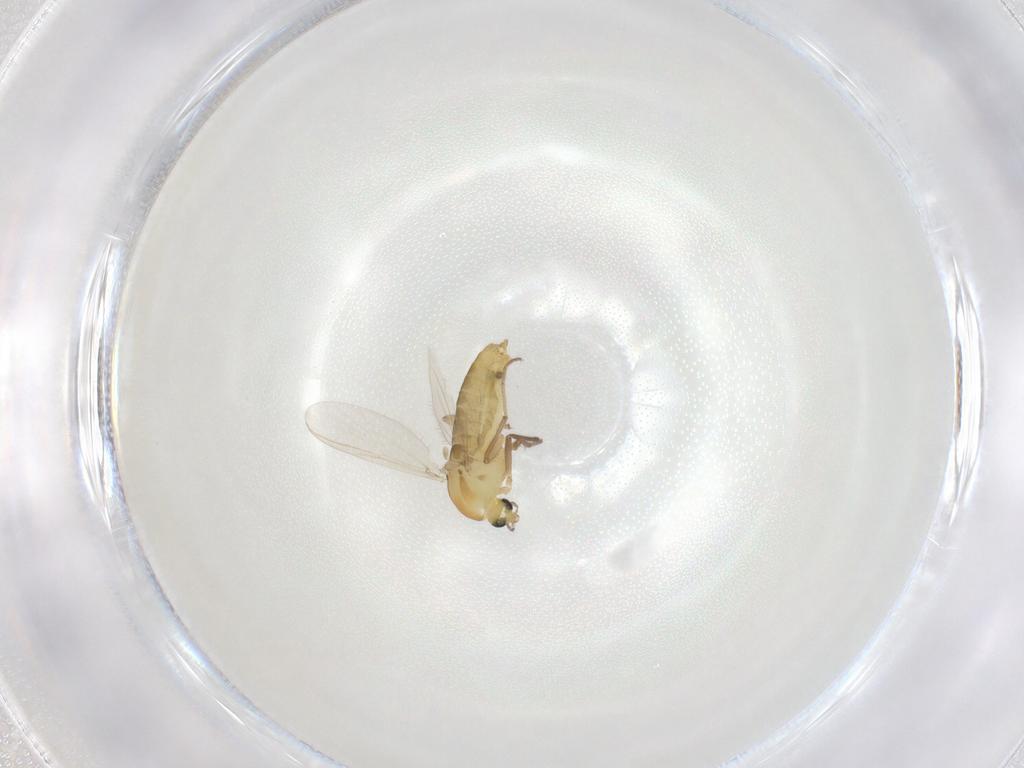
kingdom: Animalia
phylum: Arthropoda
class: Insecta
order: Diptera
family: Chironomidae
